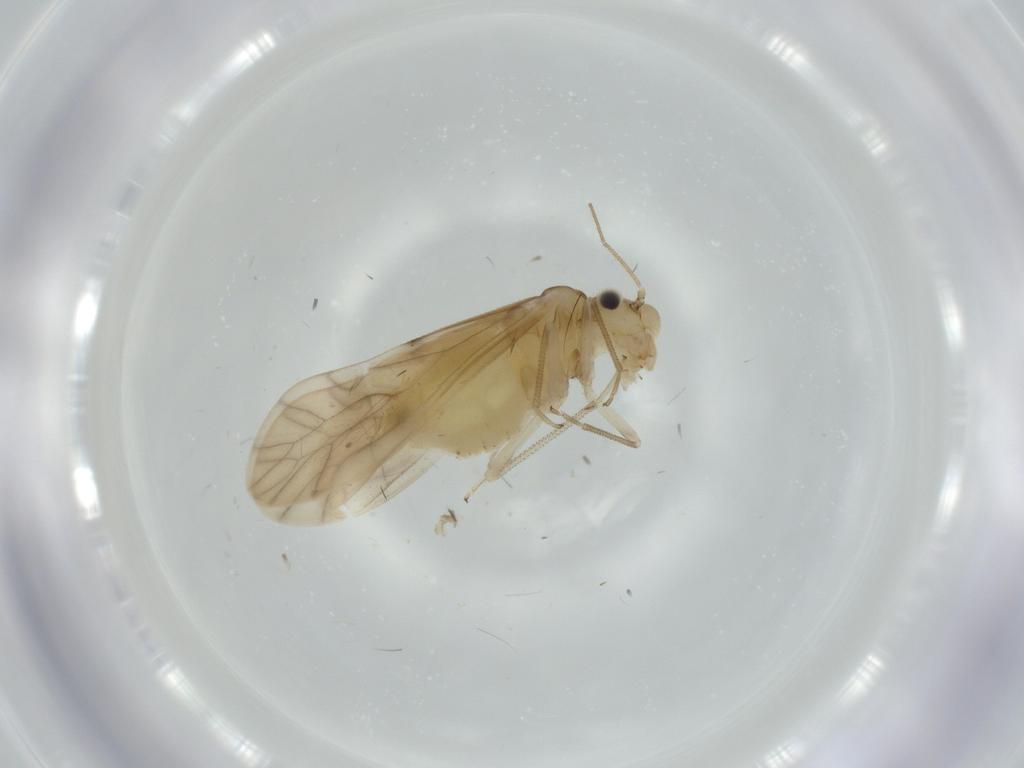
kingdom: Animalia
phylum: Arthropoda
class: Insecta
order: Psocodea
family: Caeciliusidae
